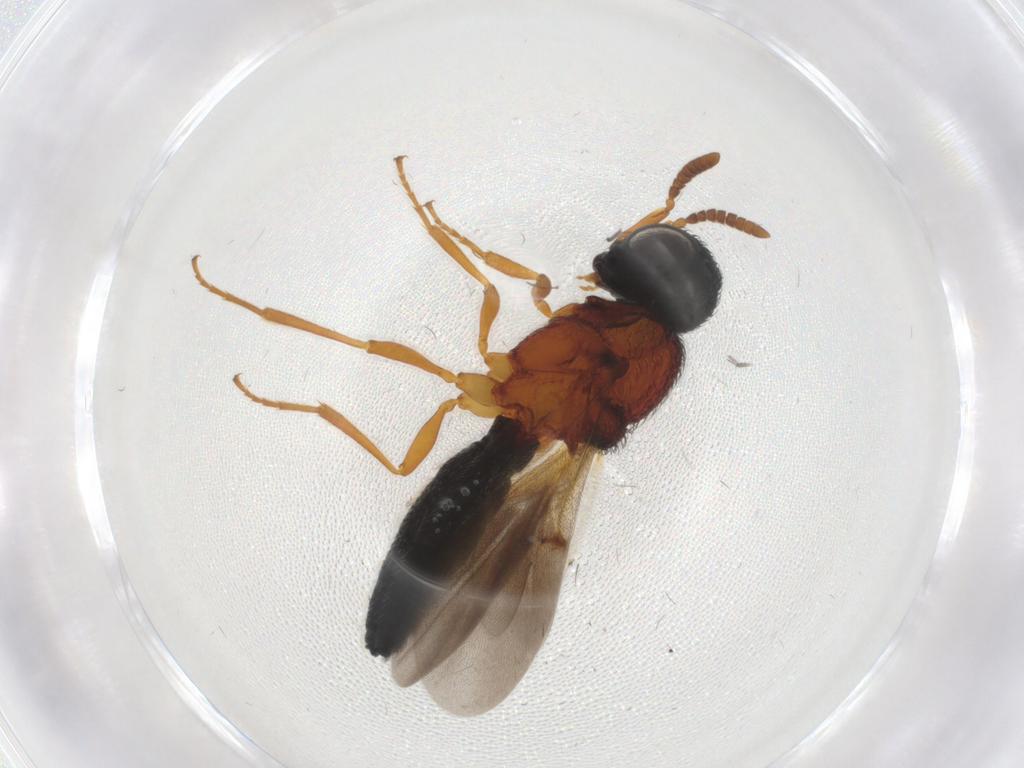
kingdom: Animalia
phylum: Arthropoda
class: Insecta
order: Hymenoptera
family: Scelionidae
